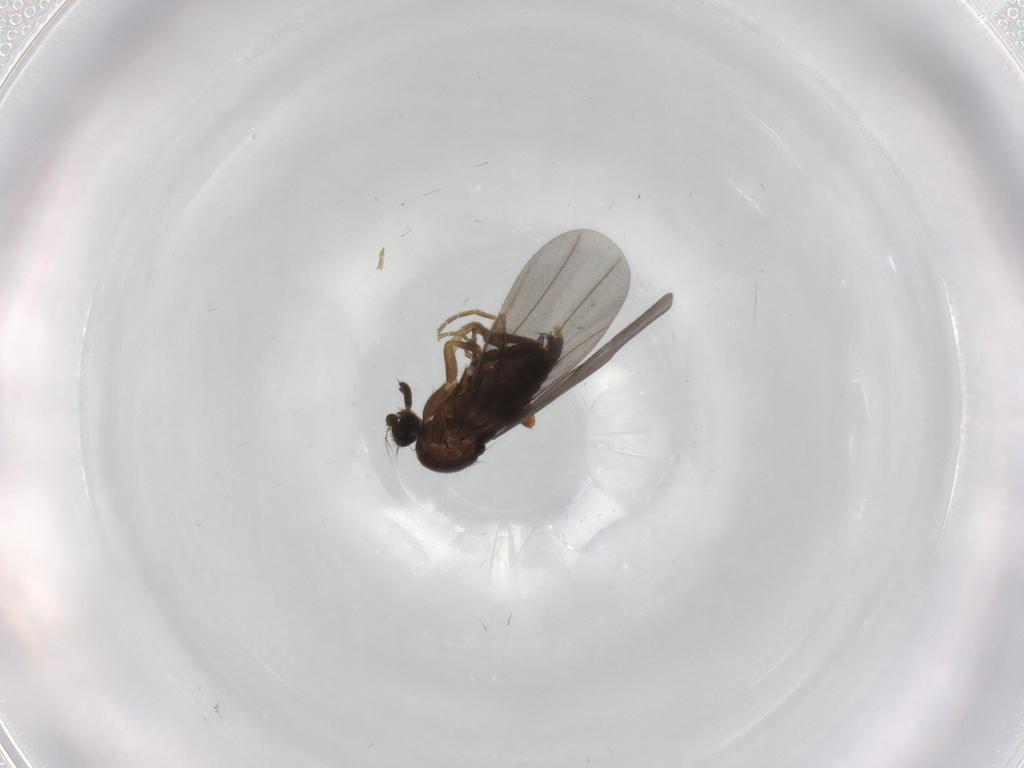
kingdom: Animalia
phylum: Arthropoda
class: Insecta
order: Diptera
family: Phoridae
